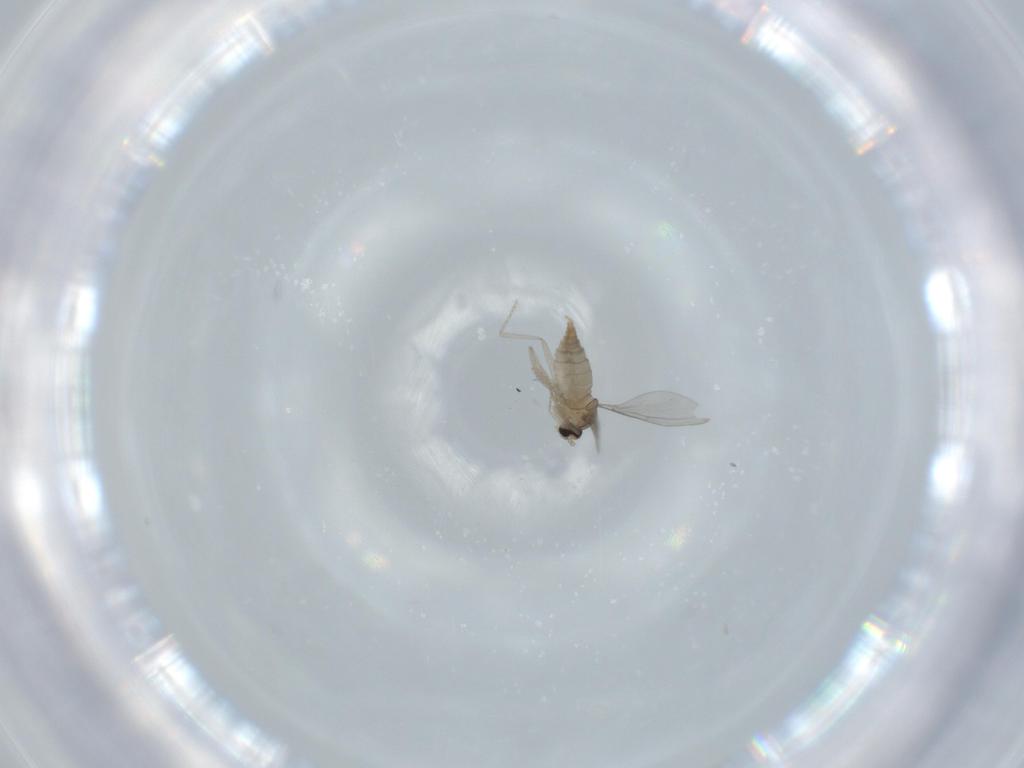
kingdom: Animalia
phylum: Arthropoda
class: Insecta
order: Diptera
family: Cecidomyiidae
